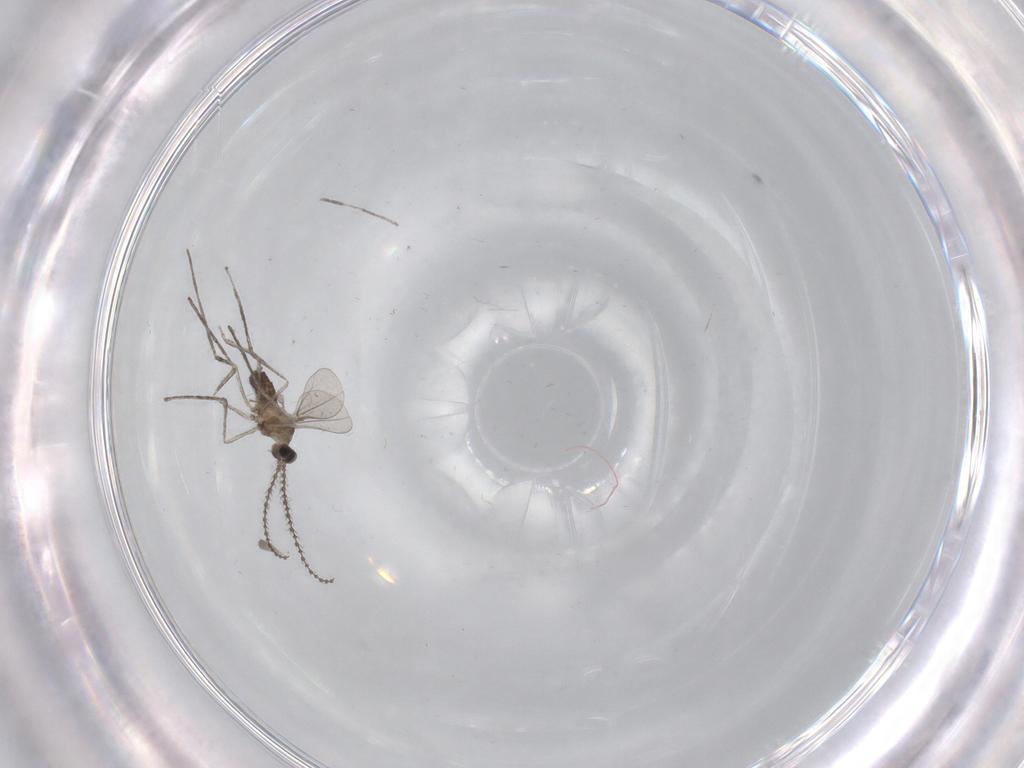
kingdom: Animalia
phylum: Arthropoda
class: Insecta
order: Diptera
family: Cecidomyiidae
